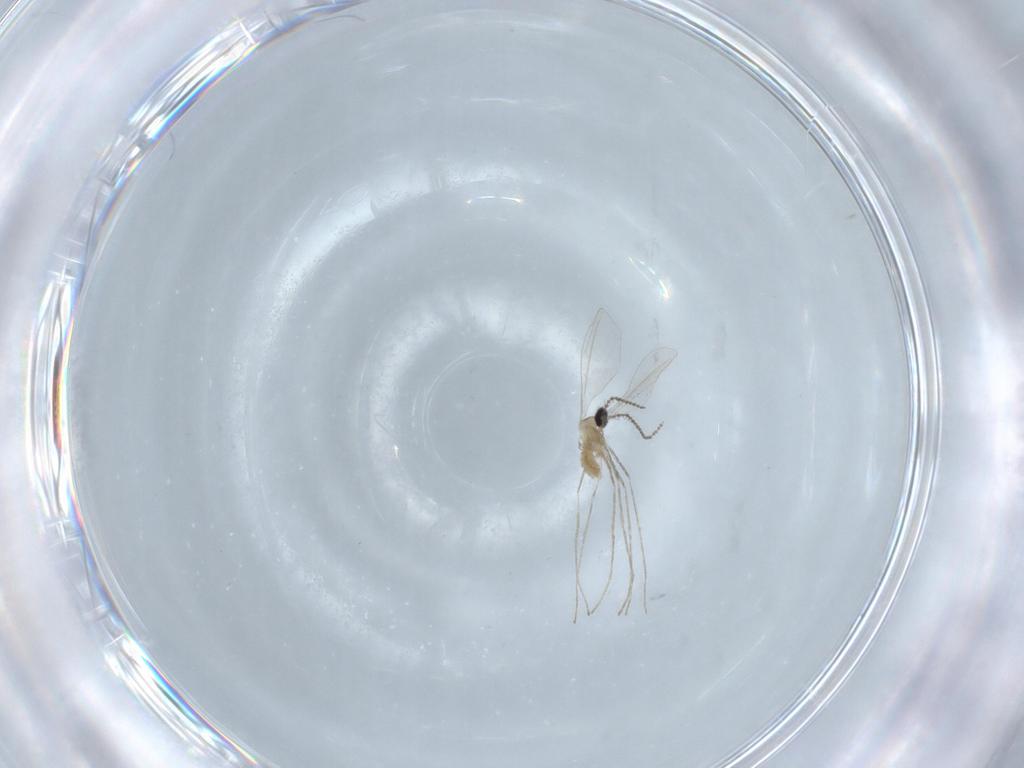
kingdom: Animalia
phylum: Arthropoda
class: Insecta
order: Diptera
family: Cecidomyiidae
